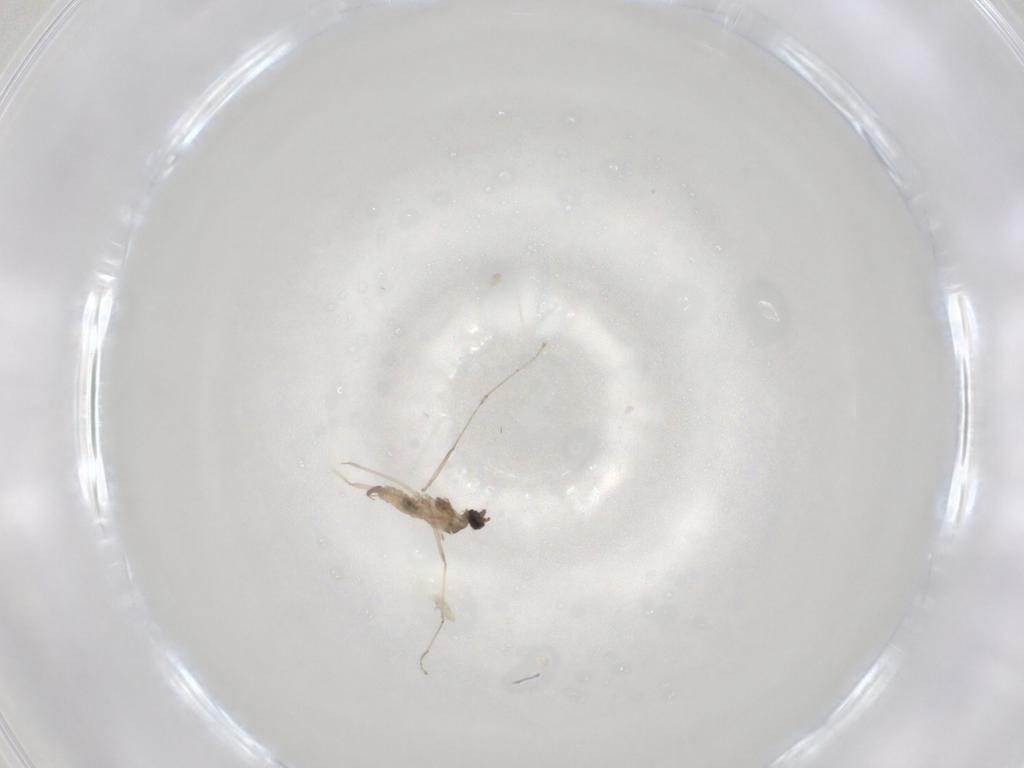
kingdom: Animalia
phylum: Arthropoda
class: Insecta
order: Diptera
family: Cecidomyiidae
